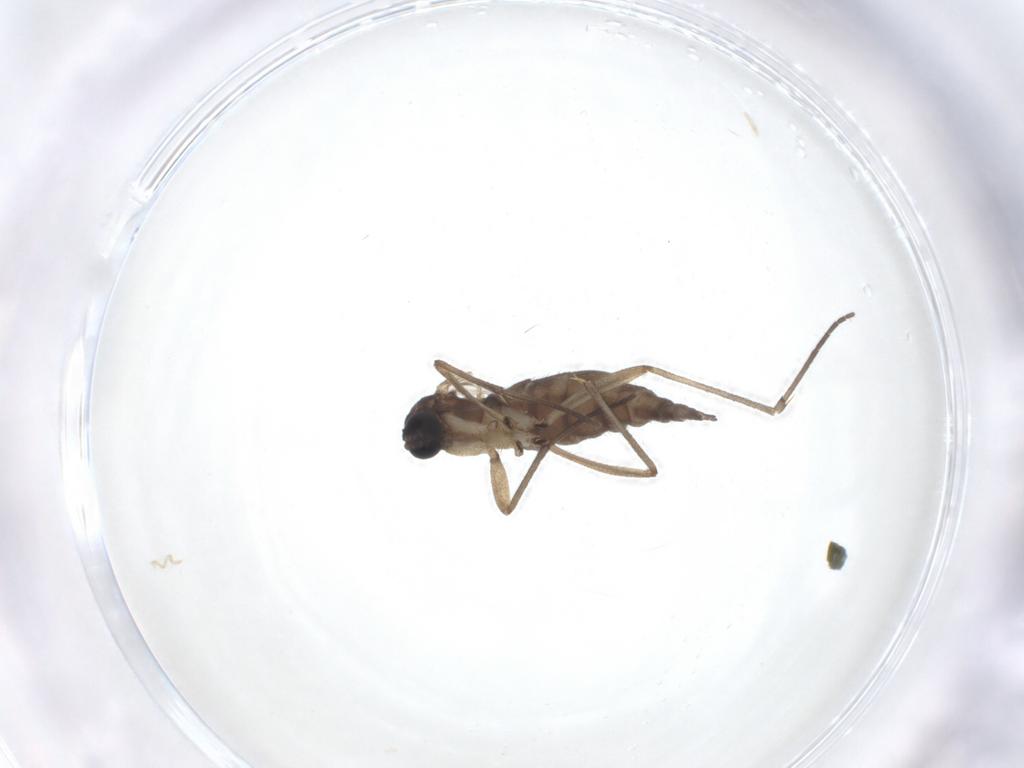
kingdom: Animalia
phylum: Arthropoda
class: Insecta
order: Diptera
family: Sciaridae
